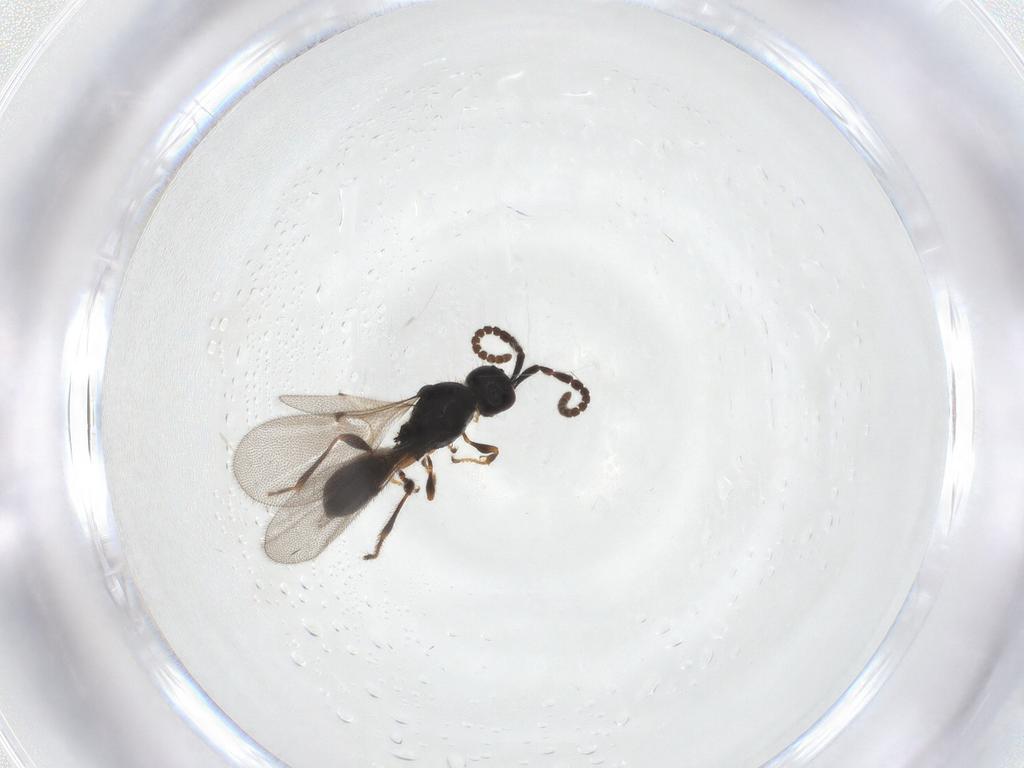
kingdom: Animalia
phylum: Arthropoda
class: Insecta
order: Hymenoptera
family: Diapriidae
